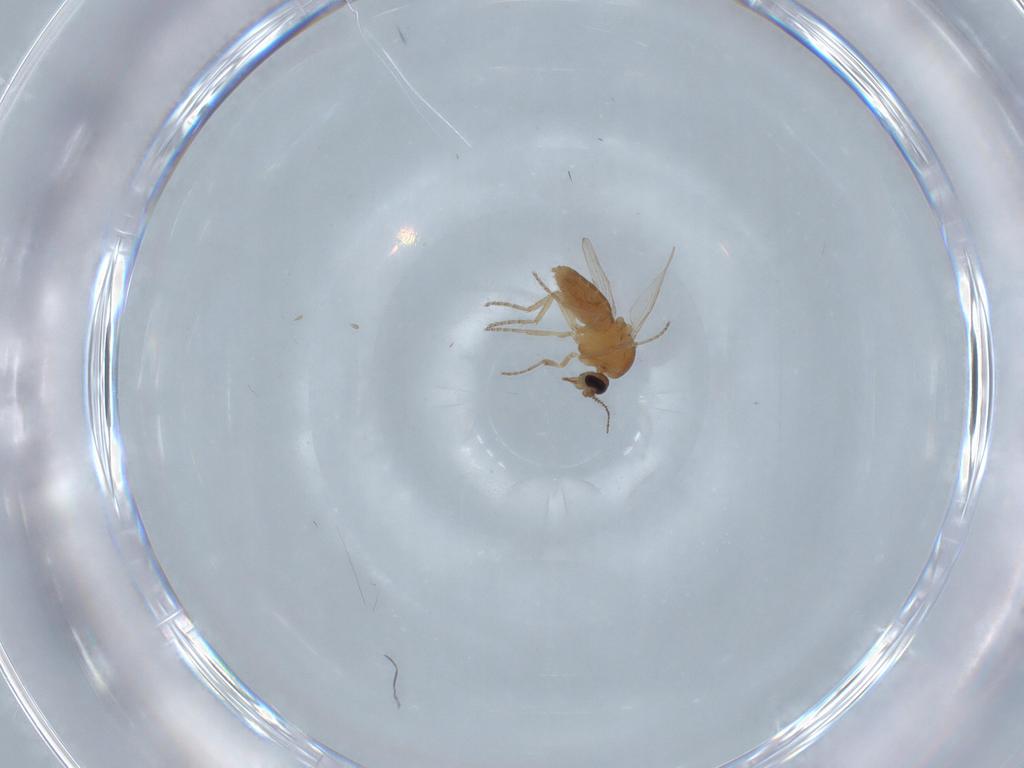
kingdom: Animalia
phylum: Arthropoda
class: Insecta
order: Diptera
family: Ceratopogonidae
